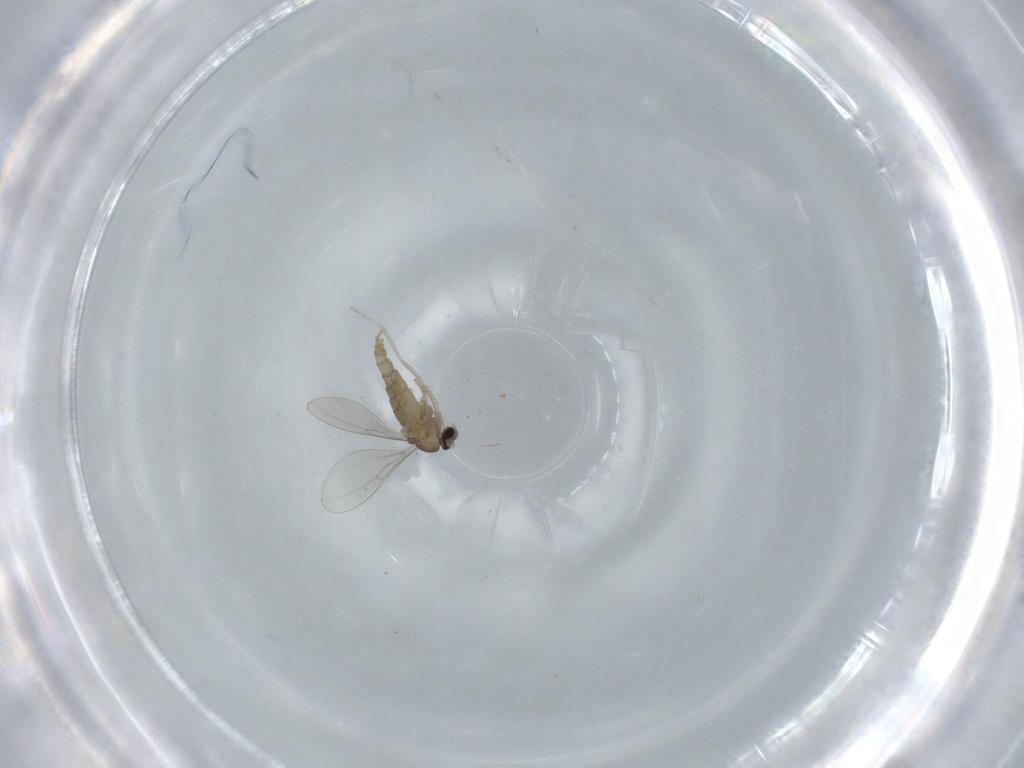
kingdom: Animalia
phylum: Arthropoda
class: Insecta
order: Diptera
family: Cecidomyiidae
